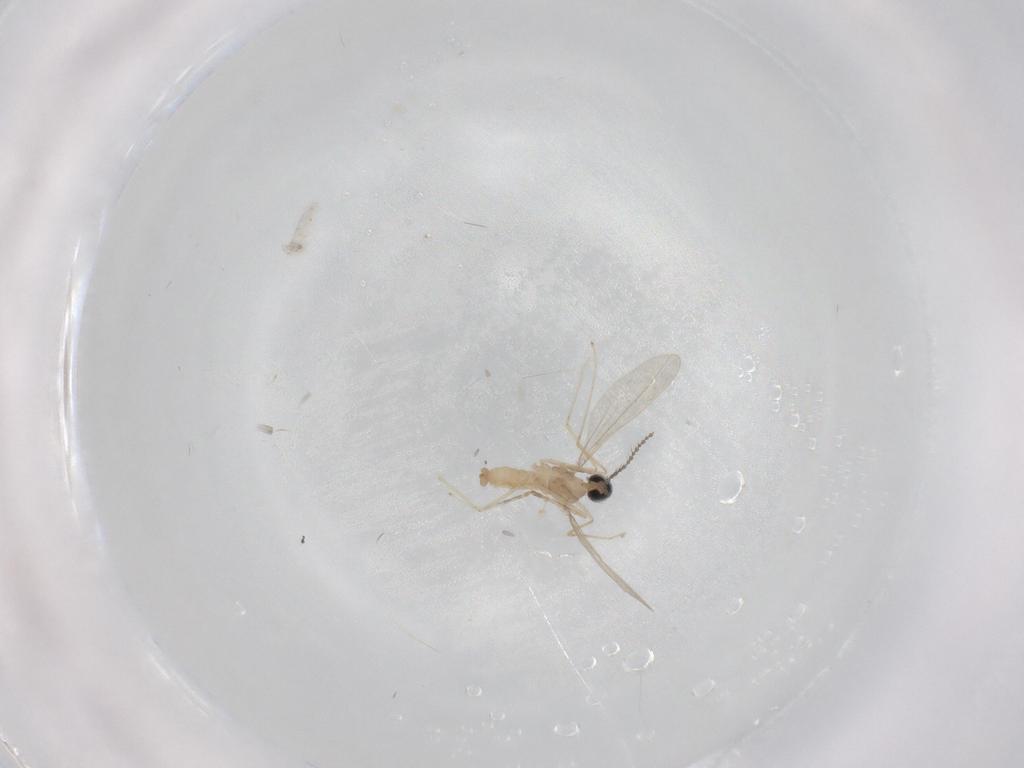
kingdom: Animalia
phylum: Arthropoda
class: Insecta
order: Diptera
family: Cecidomyiidae
